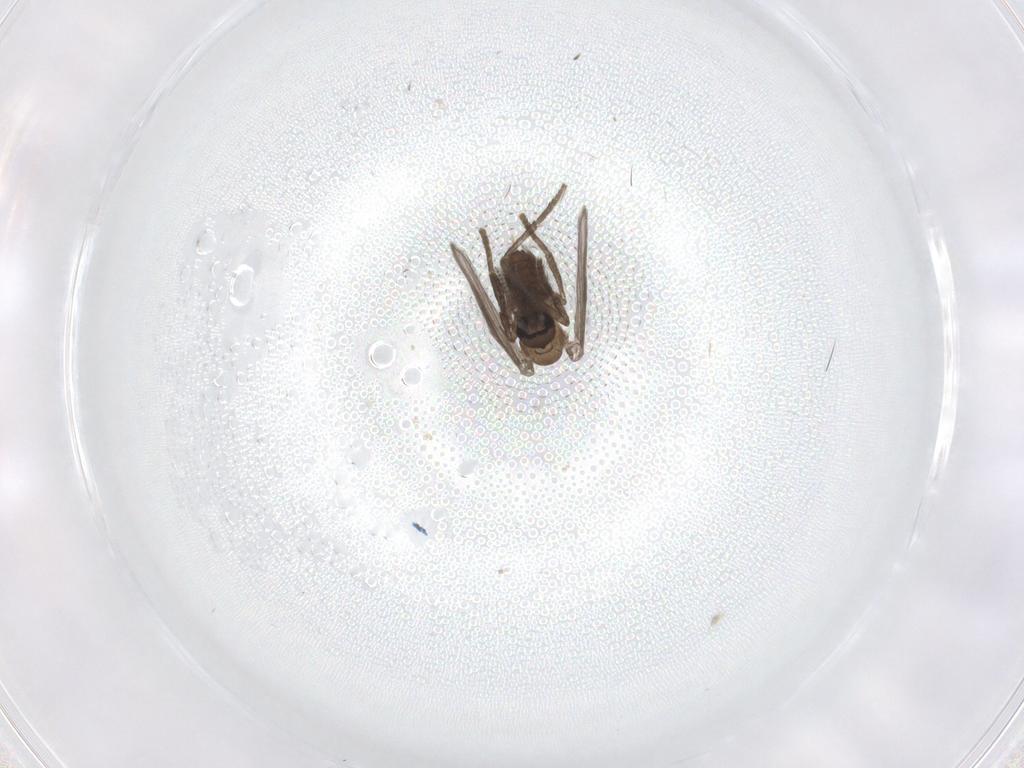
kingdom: Animalia
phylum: Arthropoda
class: Insecta
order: Diptera
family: Psychodidae
